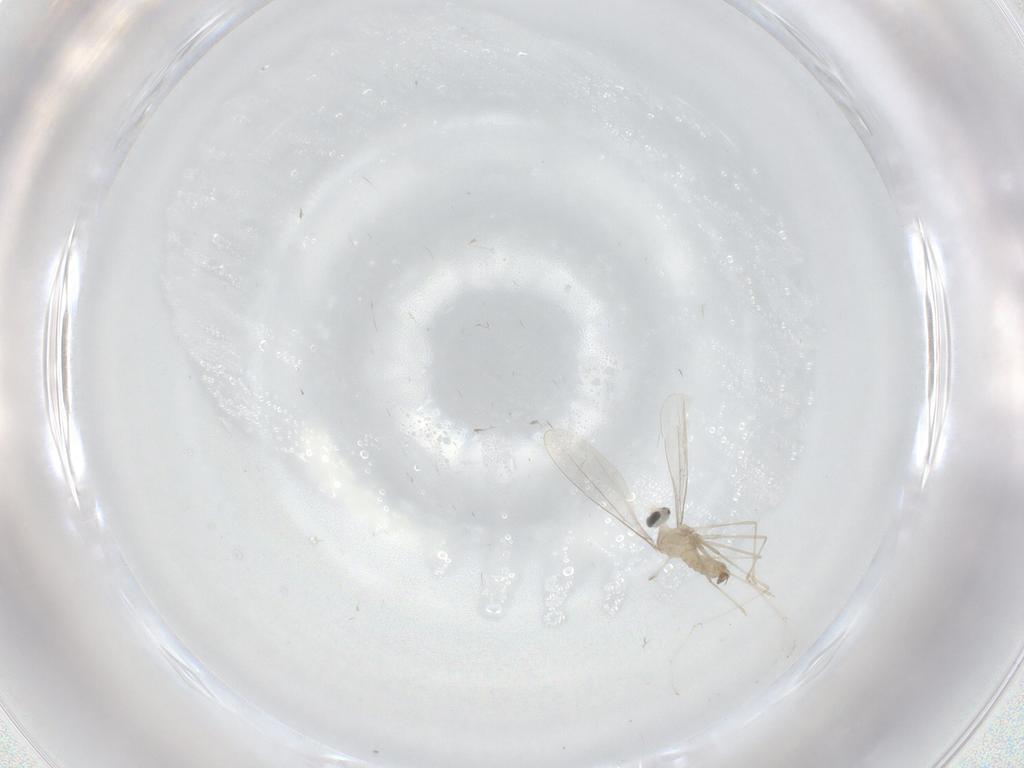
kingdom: Animalia
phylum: Arthropoda
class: Insecta
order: Diptera
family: Cecidomyiidae
